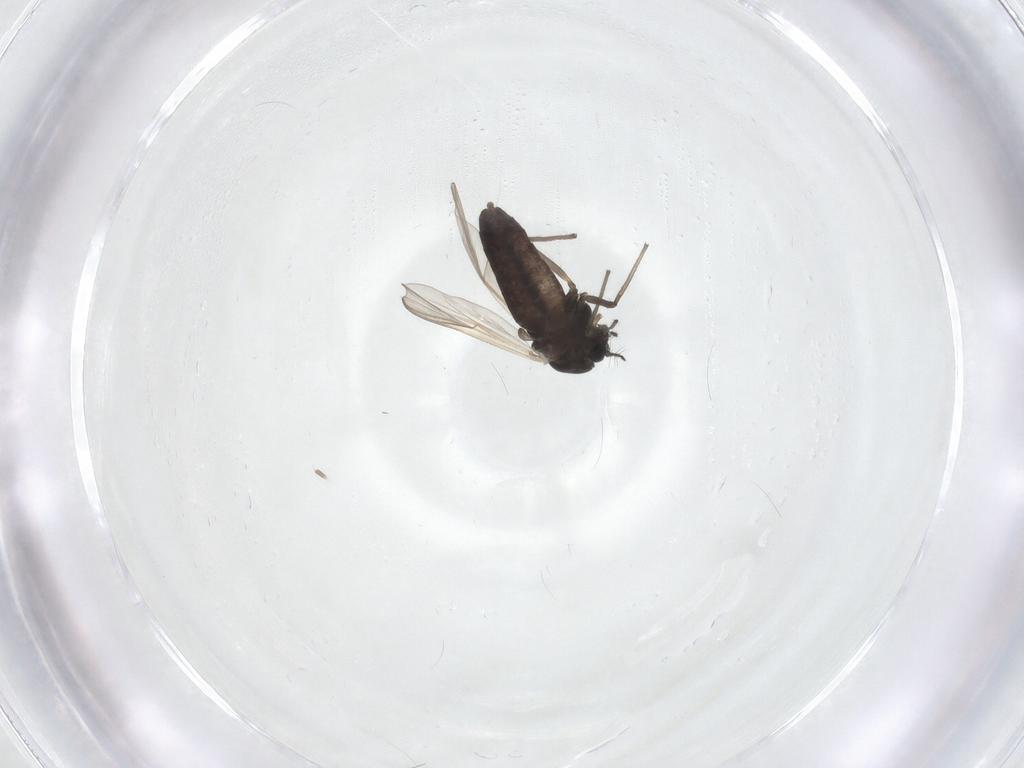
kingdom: Animalia
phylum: Arthropoda
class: Insecta
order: Diptera
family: Chironomidae
